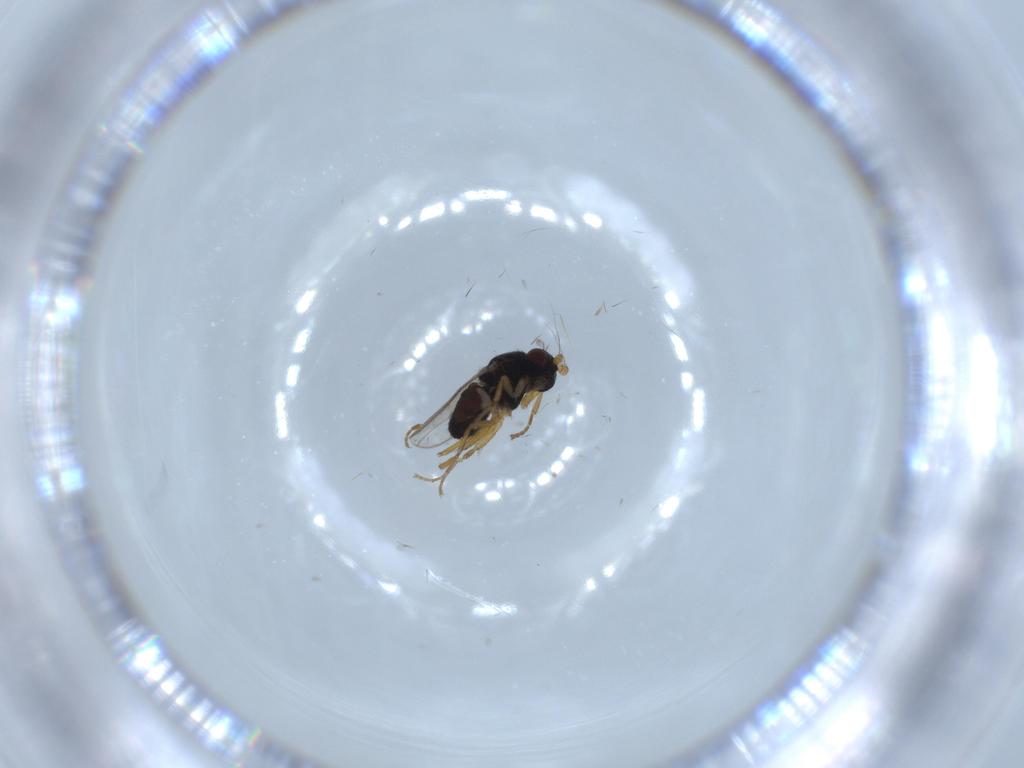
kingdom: Animalia
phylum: Arthropoda
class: Insecta
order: Diptera
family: Sphaeroceridae
